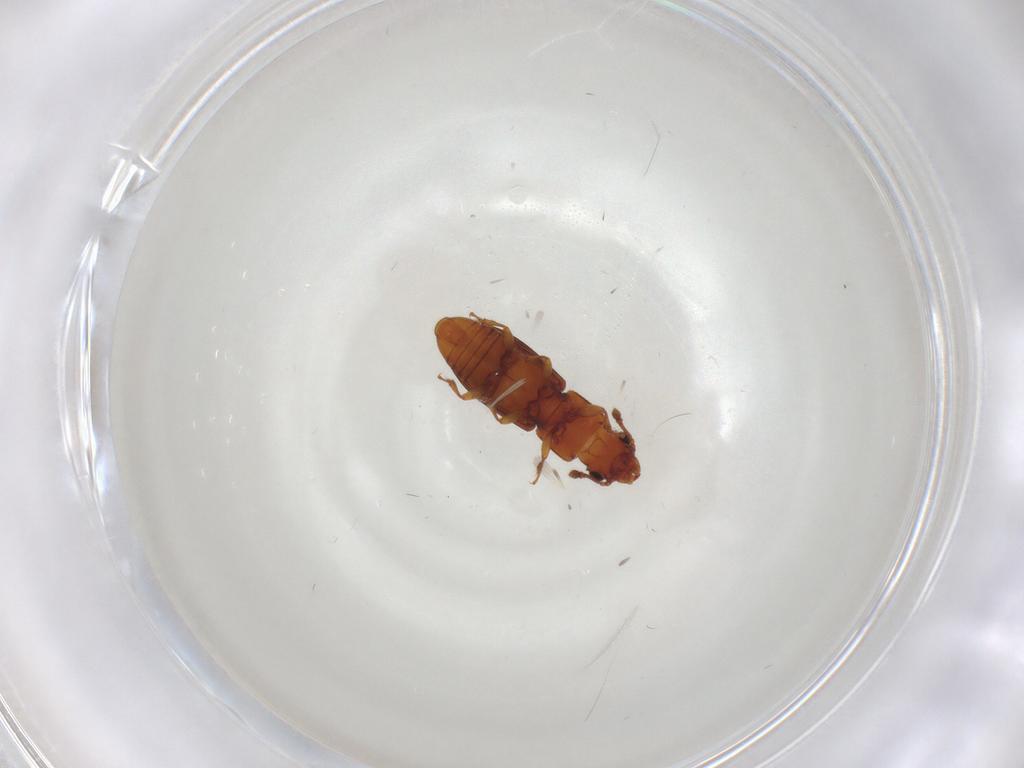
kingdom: Animalia
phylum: Arthropoda
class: Insecta
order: Coleoptera
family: Monotomidae
